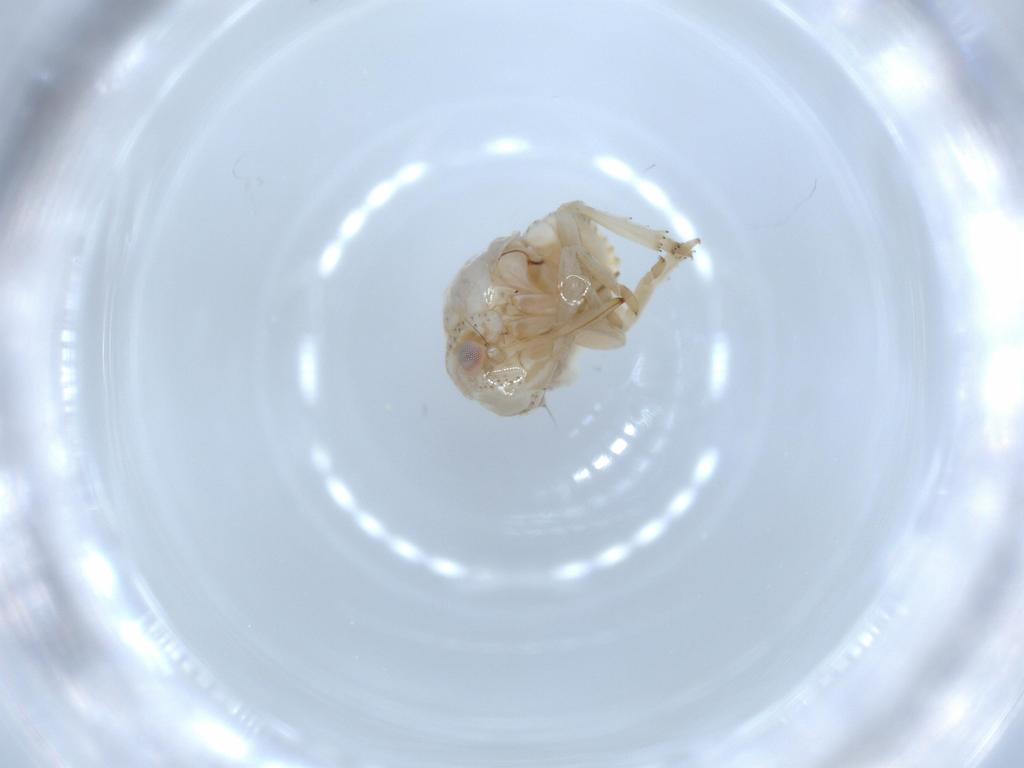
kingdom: Animalia
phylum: Arthropoda
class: Insecta
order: Hemiptera
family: Acanaloniidae
